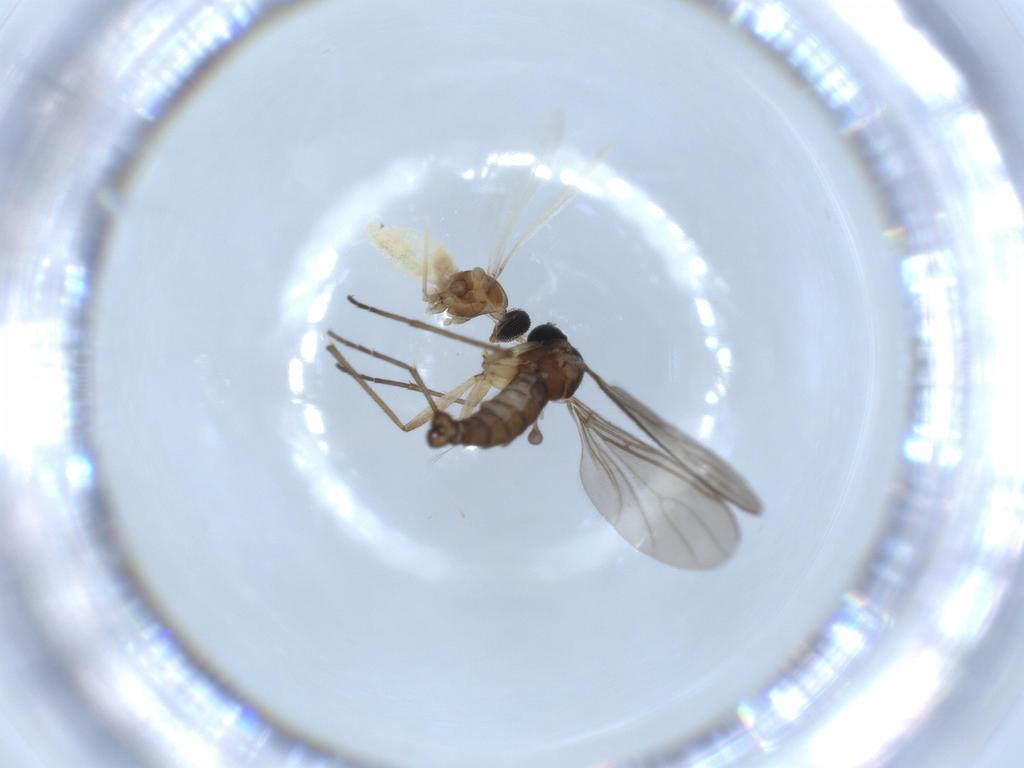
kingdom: Animalia
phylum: Arthropoda
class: Insecta
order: Diptera
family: Cecidomyiidae
